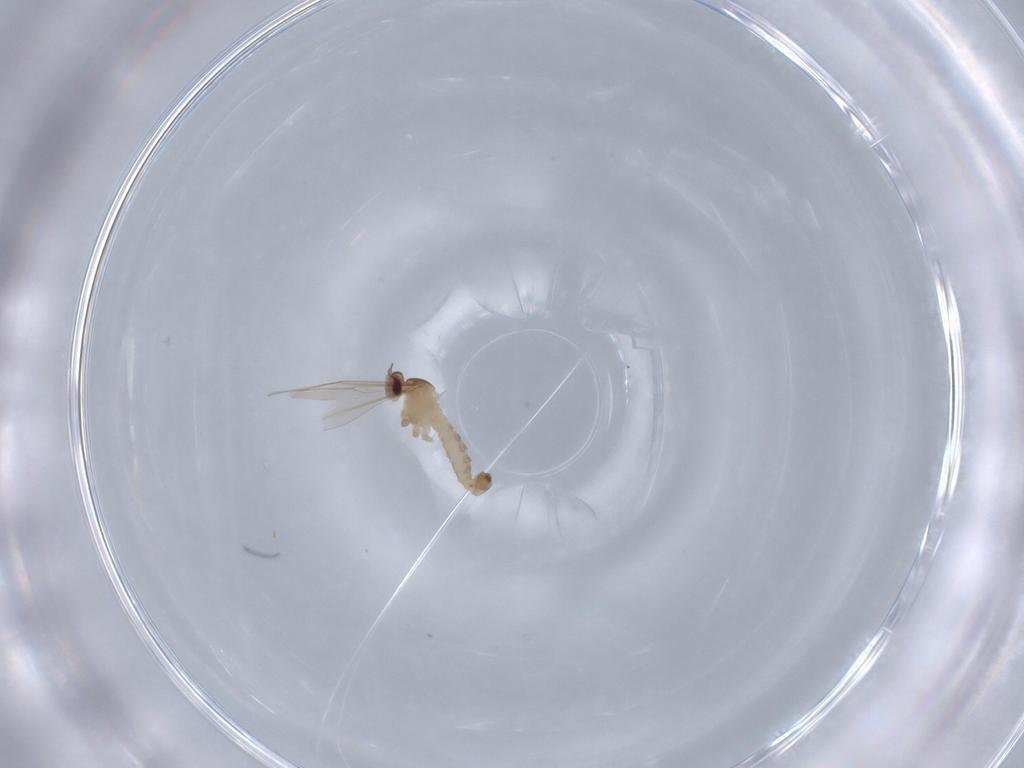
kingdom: Animalia
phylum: Arthropoda
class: Insecta
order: Diptera
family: Cecidomyiidae
